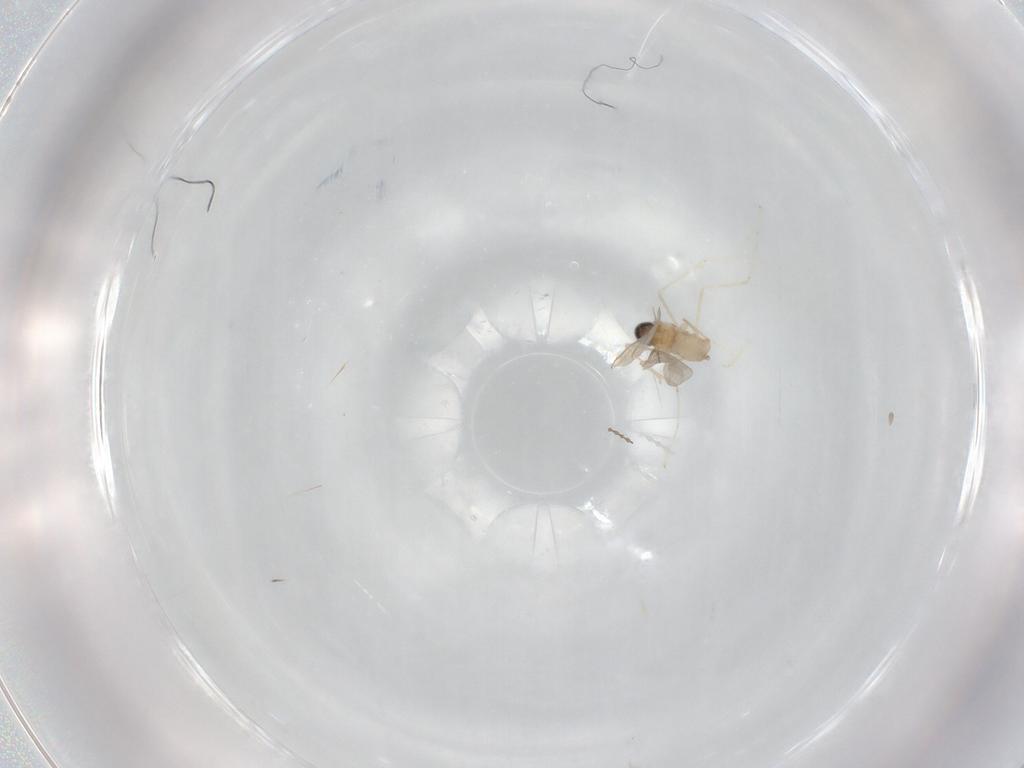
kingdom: Animalia
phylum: Arthropoda
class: Insecta
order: Diptera
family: Cecidomyiidae
